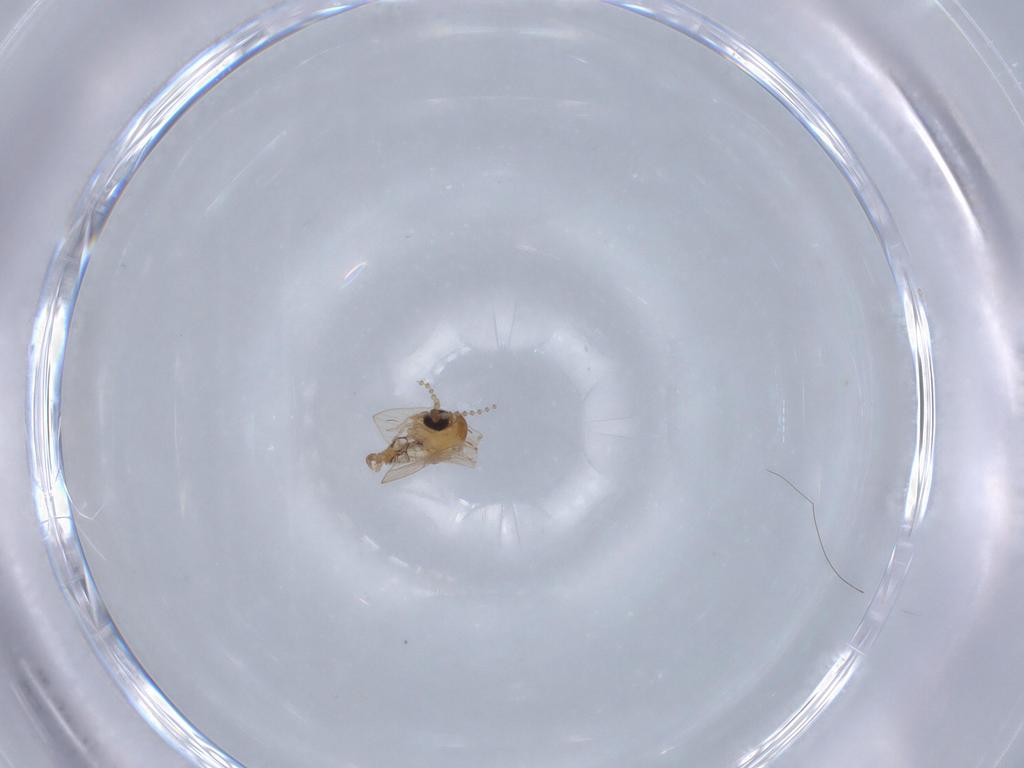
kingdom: Animalia
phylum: Arthropoda
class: Insecta
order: Diptera
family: Cecidomyiidae
